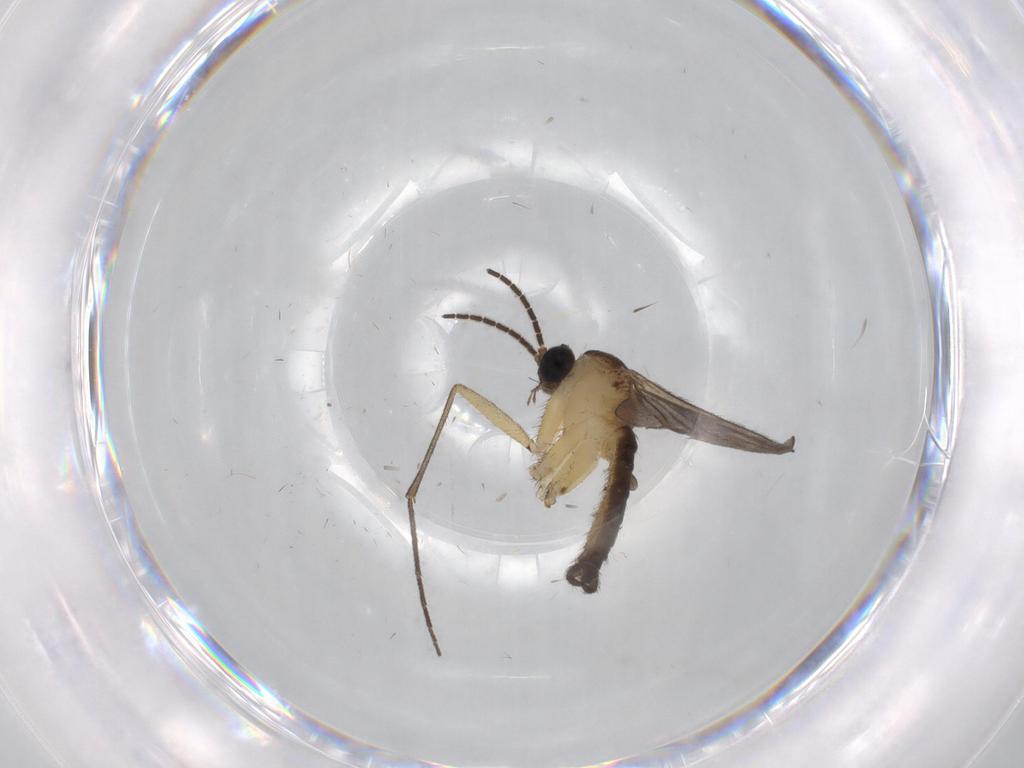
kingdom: Animalia
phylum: Arthropoda
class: Insecta
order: Diptera
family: Sciaridae
